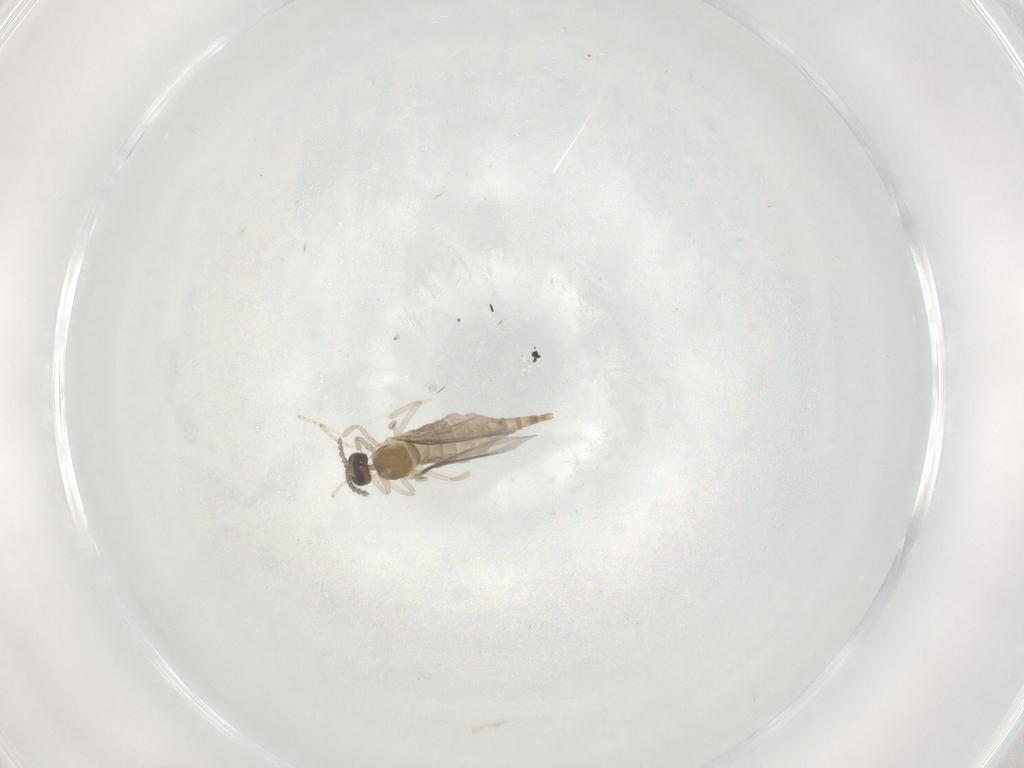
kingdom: Animalia
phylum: Arthropoda
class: Insecta
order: Diptera
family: Cecidomyiidae
